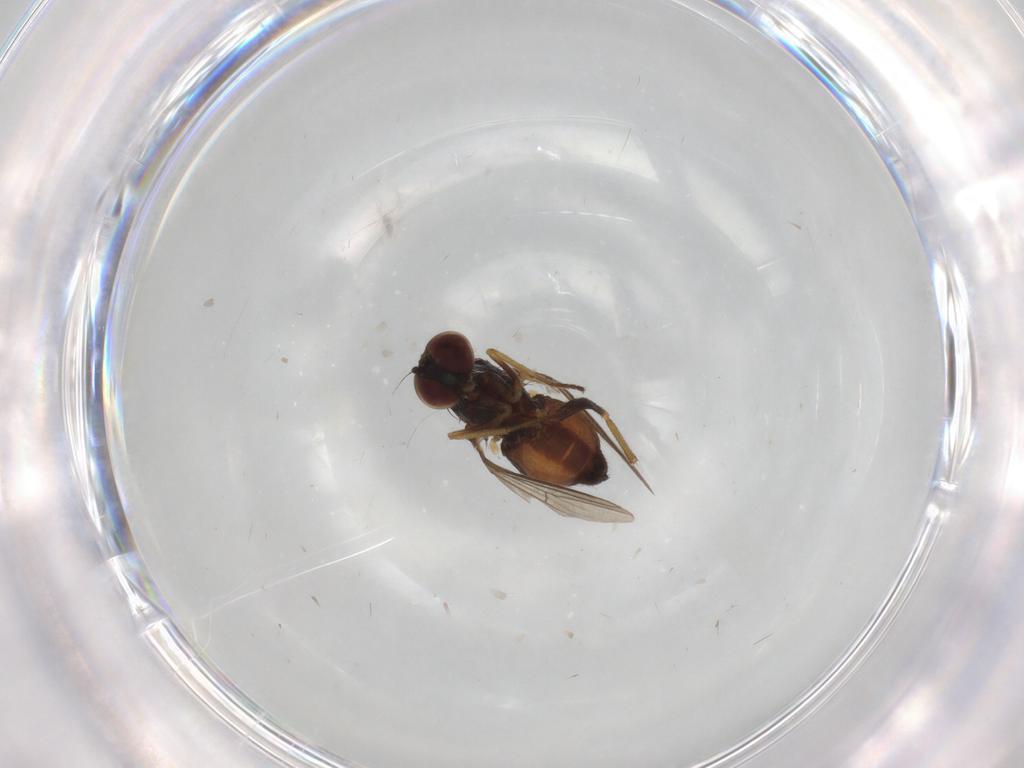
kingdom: Animalia
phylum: Arthropoda
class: Insecta
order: Diptera
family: Dolichopodidae
